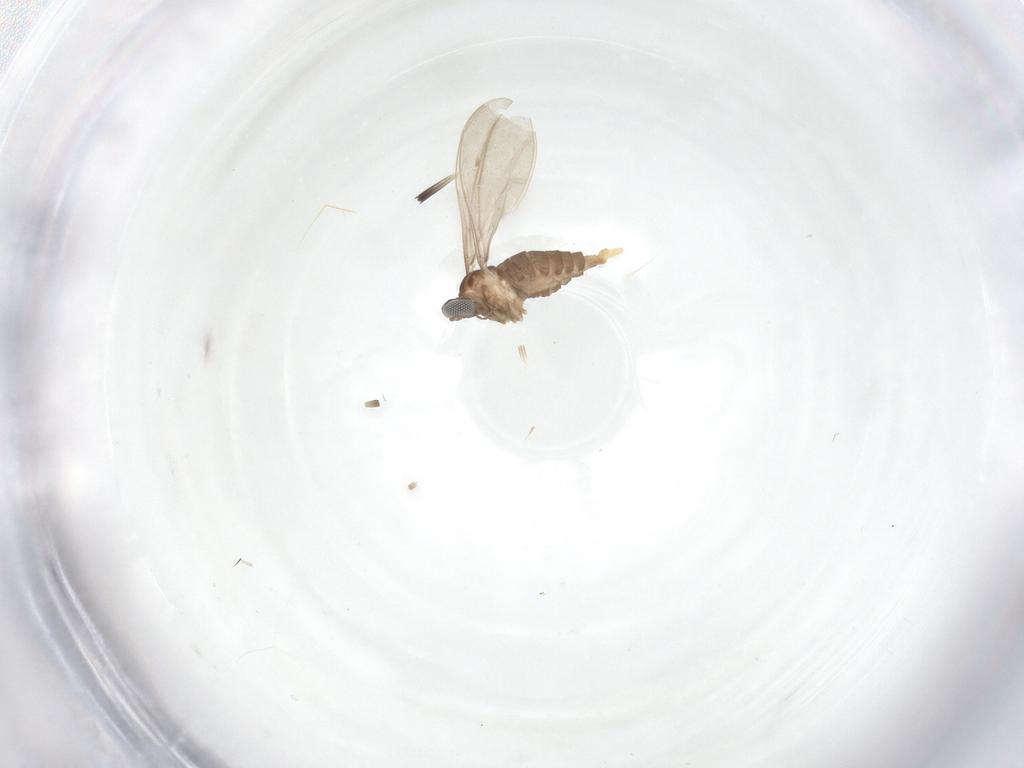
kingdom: Animalia
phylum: Arthropoda
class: Insecta
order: Diptera
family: Cecidomyiidae
